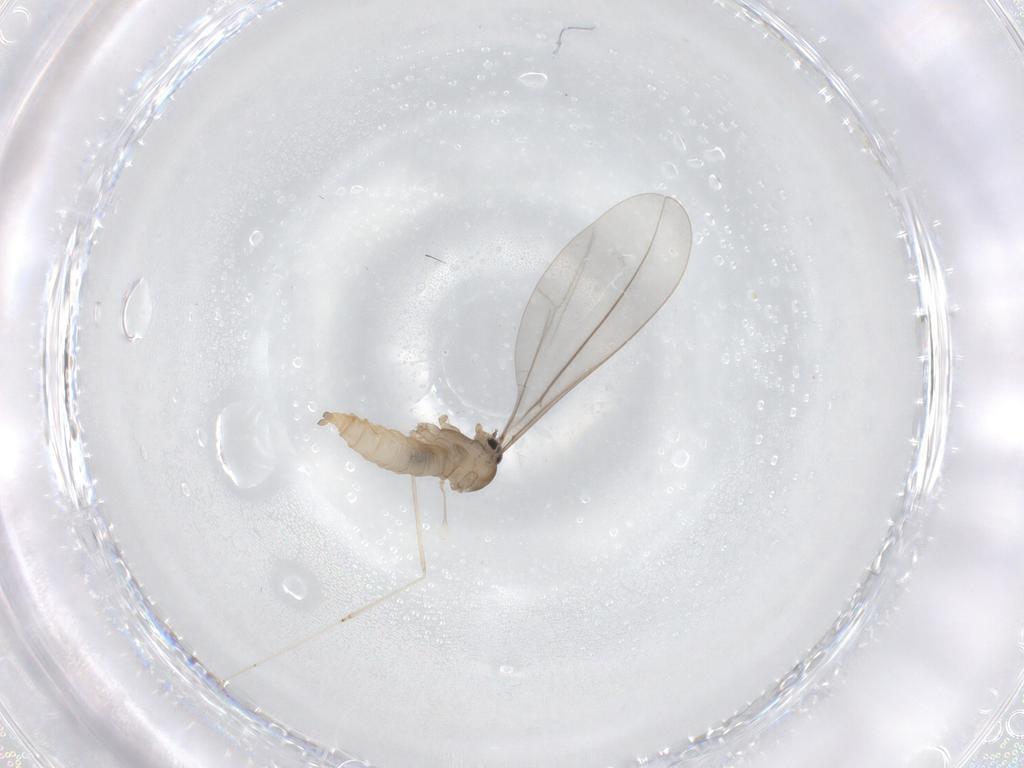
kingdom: Animalia
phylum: Arthropoda
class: Insecta
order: Diptera
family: Cecidomyiidae
